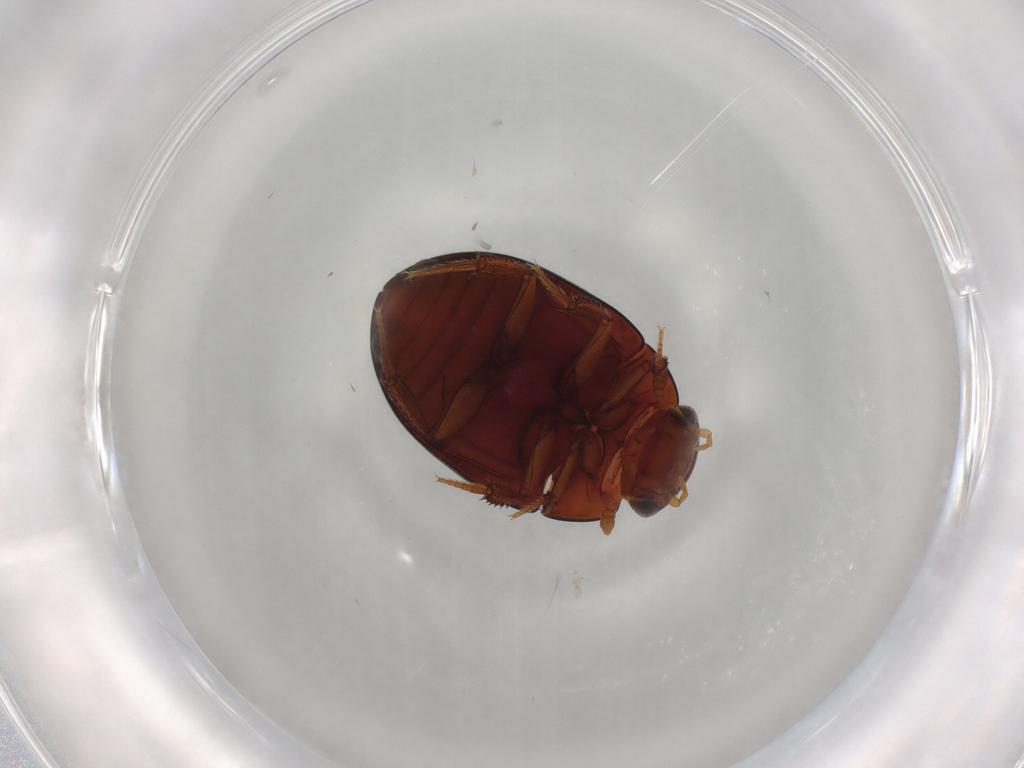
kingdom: Animalia
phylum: Arthropoda
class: Insecta
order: Coleoptera
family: Hydrophilidae
